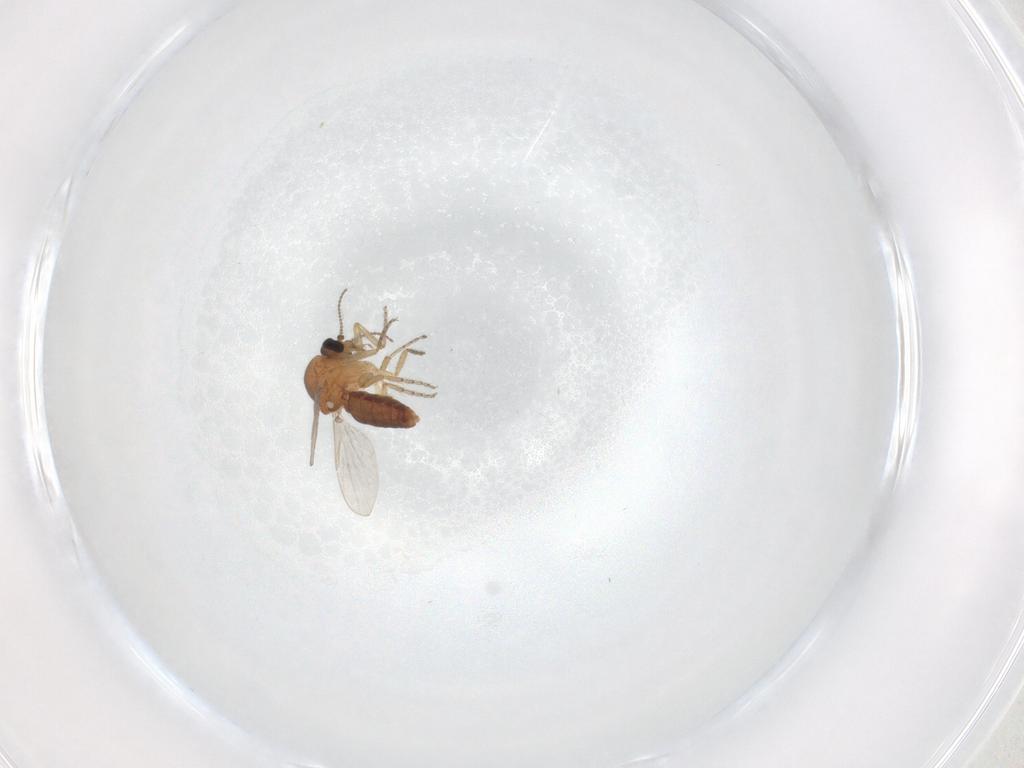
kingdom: Animalia
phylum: Arthropoda
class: Insecta
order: Diptera
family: Ceratopogonidae
